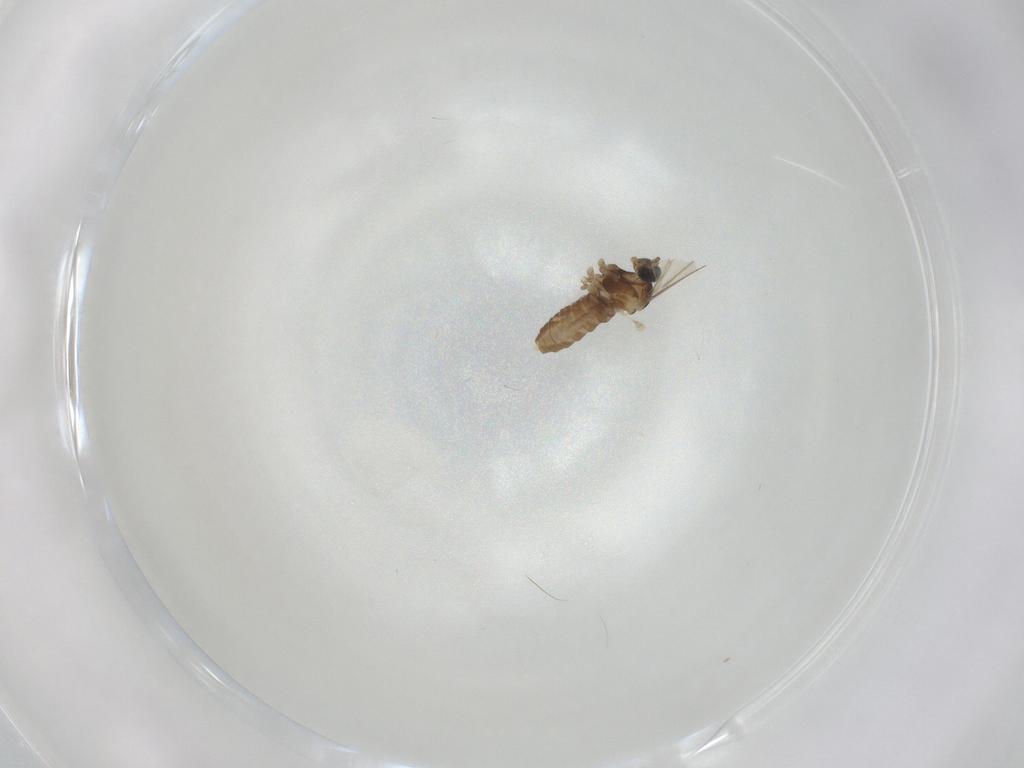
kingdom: Animalia
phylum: Arthropoda
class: Insecta
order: Diptera
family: Cecidomyiidae
